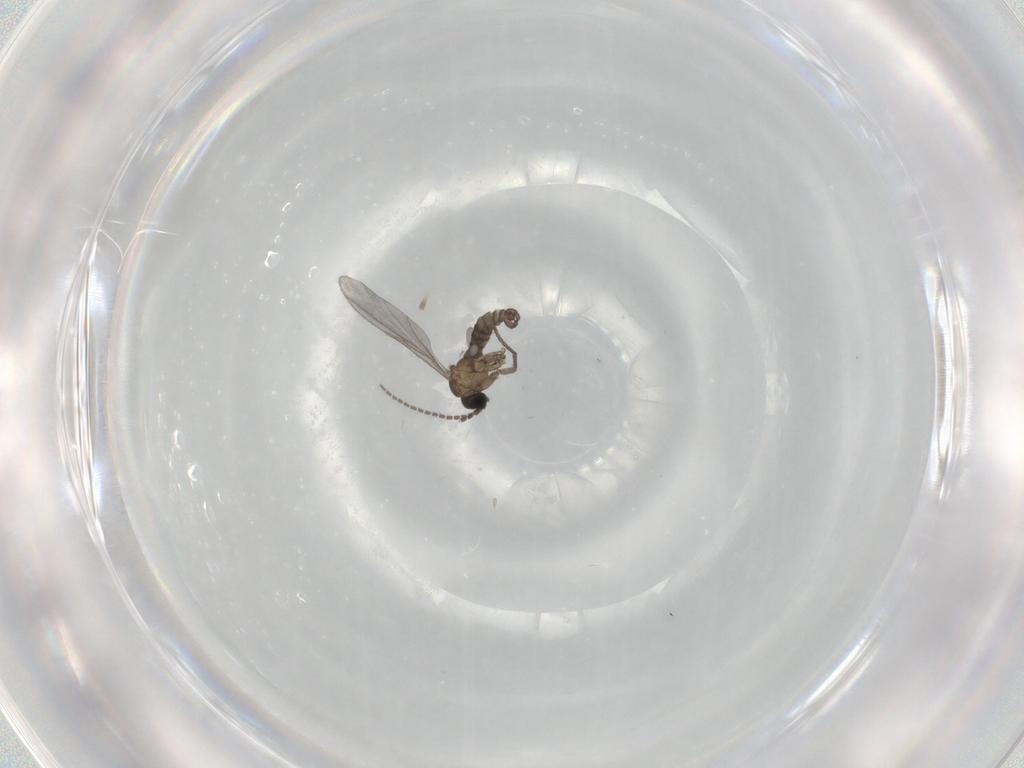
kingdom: Animalia
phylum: Arthropoda
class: Insecta
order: Diptera
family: Sciaridae
